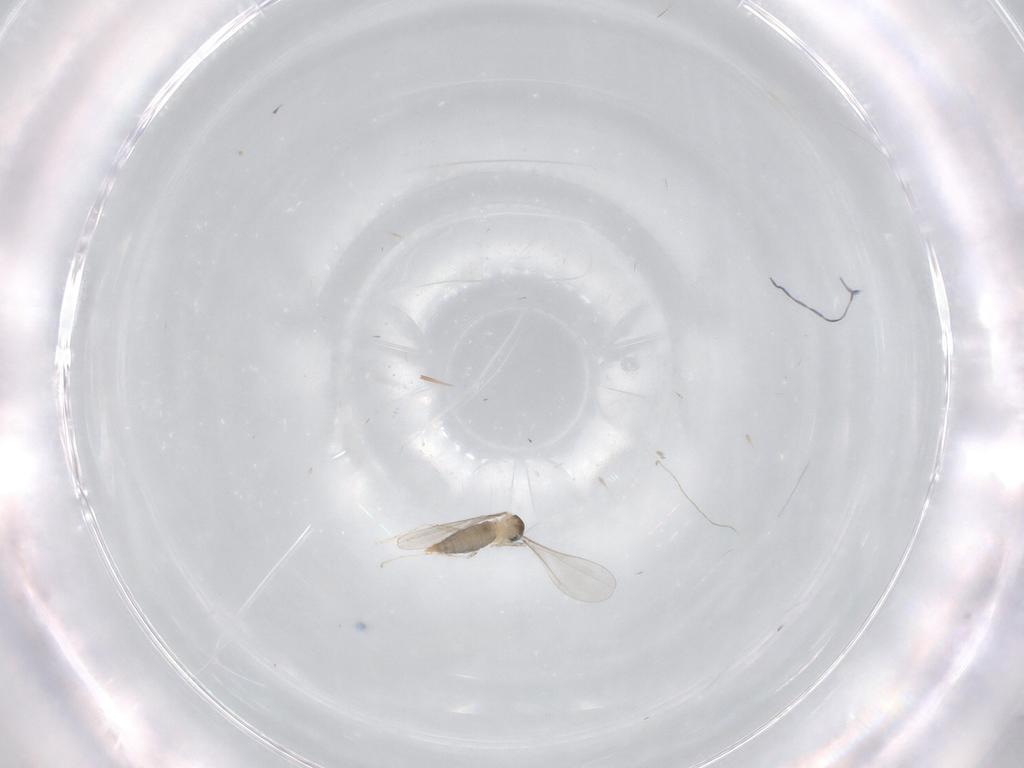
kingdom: Animalia
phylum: Arthropoda
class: Insecta
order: Diptera
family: Cecidomyiidae
